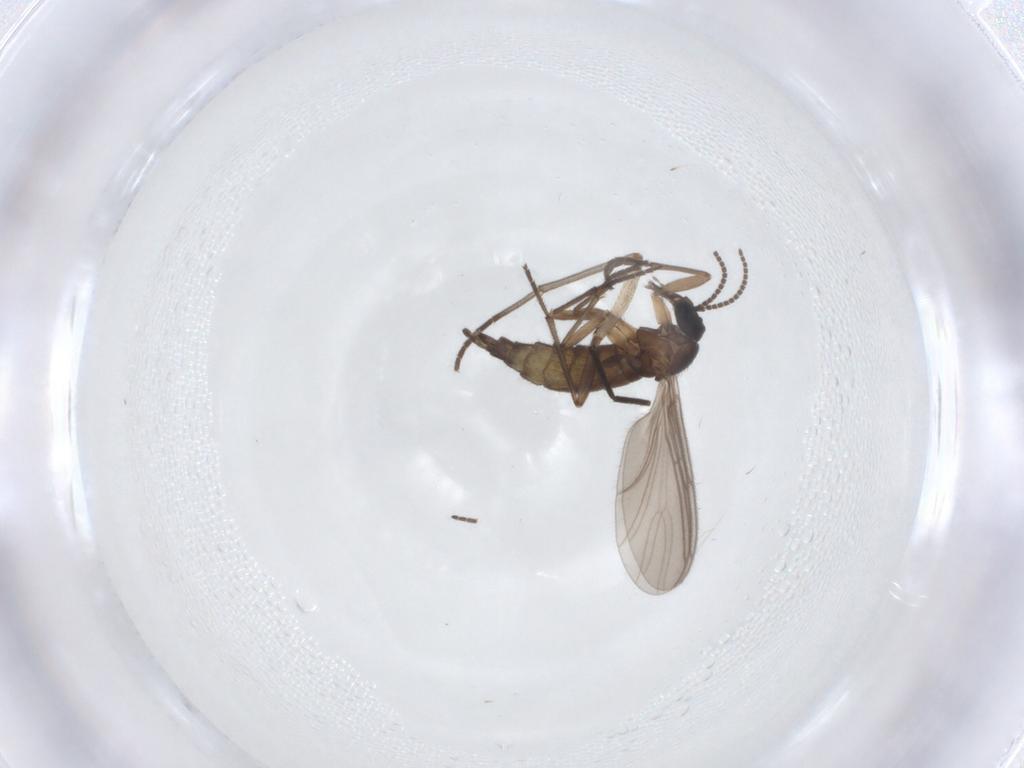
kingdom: Animalia
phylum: Arthropoda
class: Insecta
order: Diptera
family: Sciaridae
